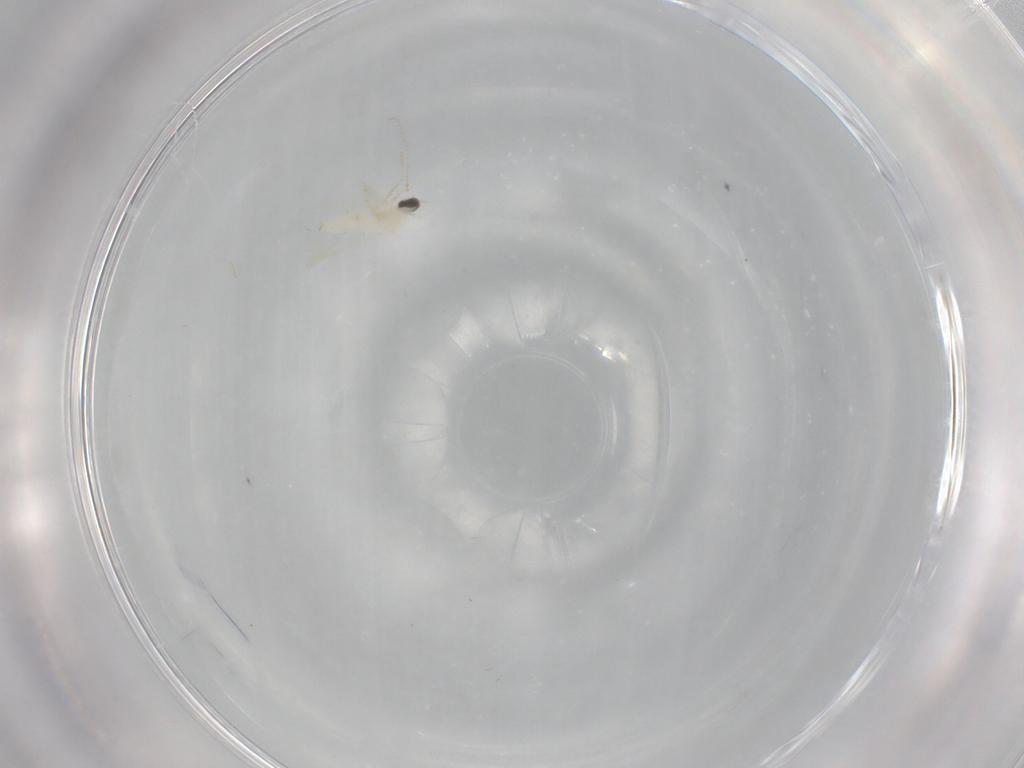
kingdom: Animalia
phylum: Arthropoda
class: Insecta
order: Diptera
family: Cecidomyiidae
